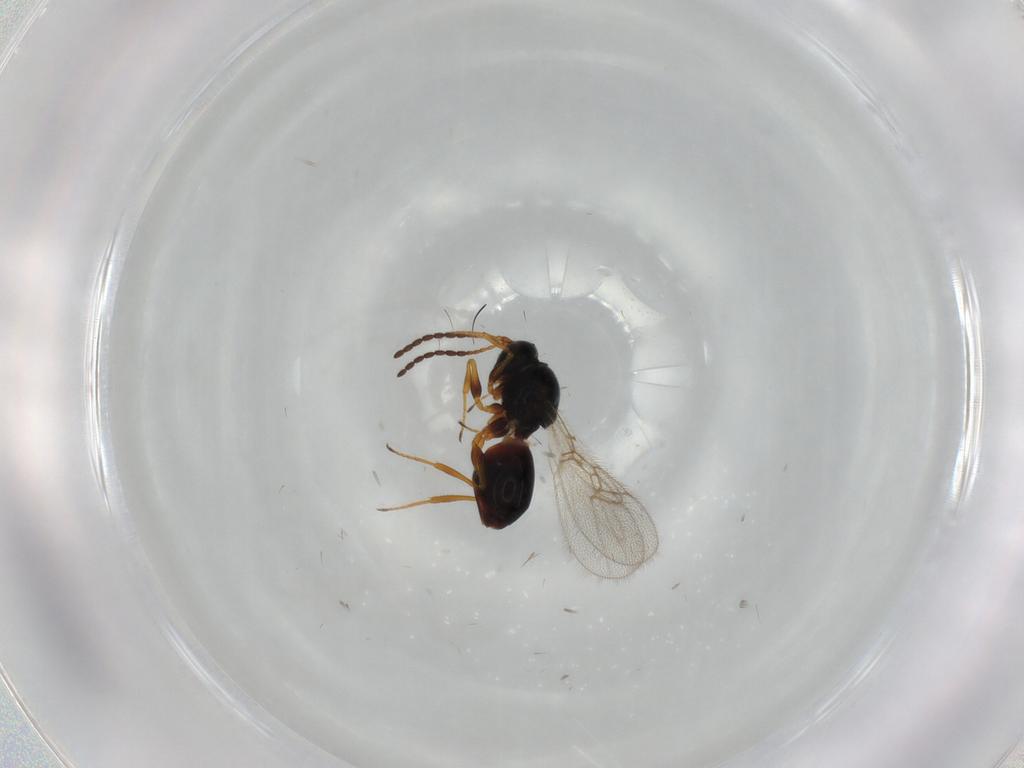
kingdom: Animalia
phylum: Arthropoda
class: Insecta
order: Hymenoptera
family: Figitidae
